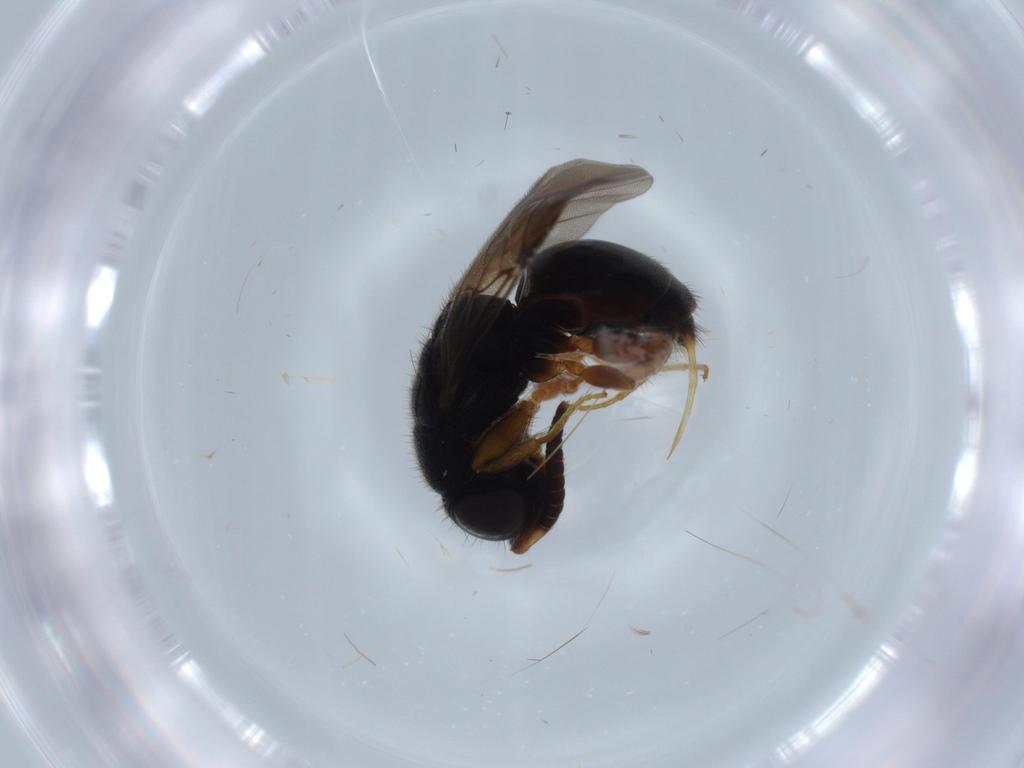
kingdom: Animalia
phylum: Arthropoda
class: Insecta
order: Hymenoptera
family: Chrysididae
